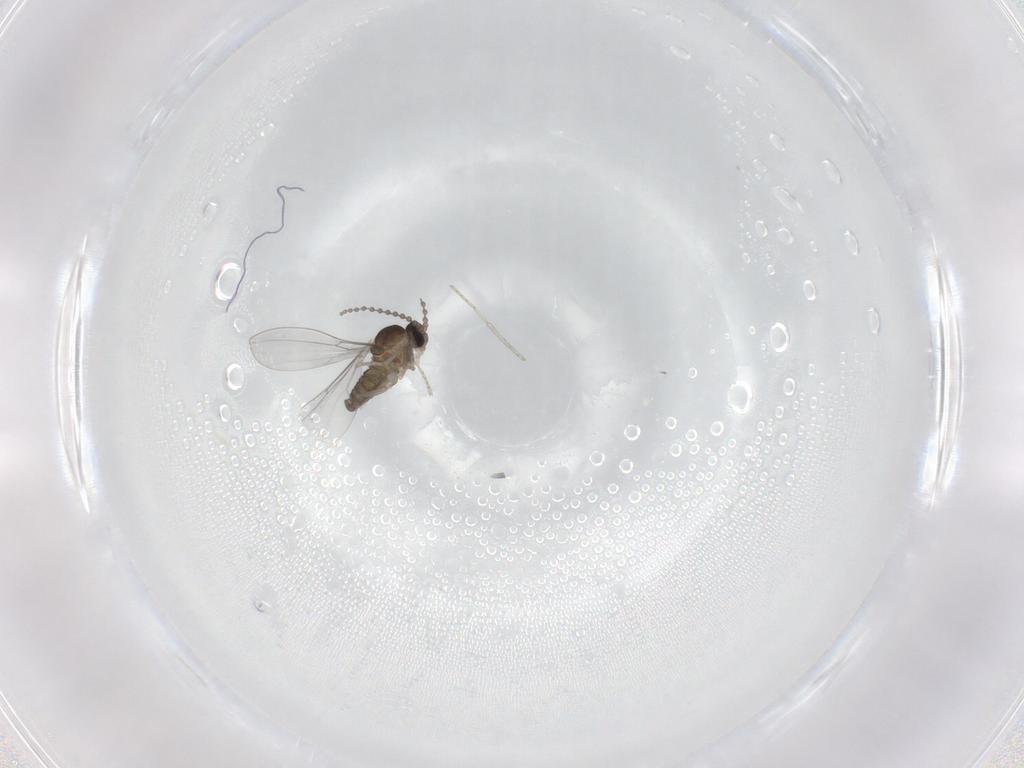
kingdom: Animalia
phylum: Arthropoda
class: Insecta
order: Diptera
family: Cecidomyiidae
